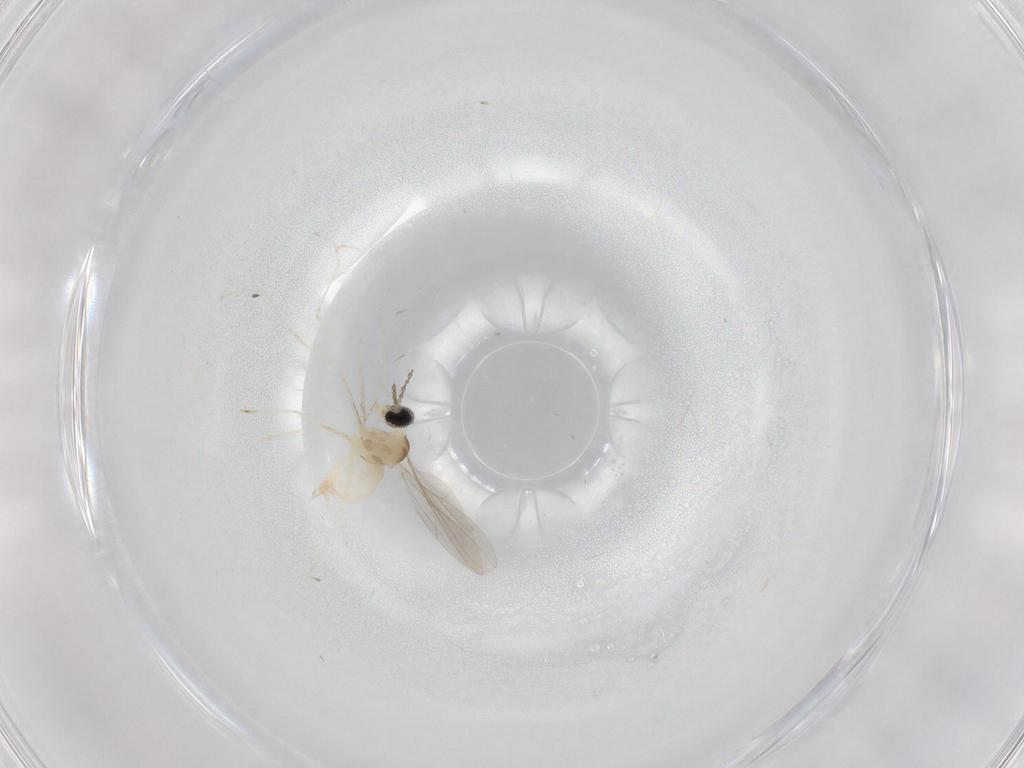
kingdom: Animalia
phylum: Arthropoda
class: Insecta
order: Diptera
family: Cecidomyiidae
